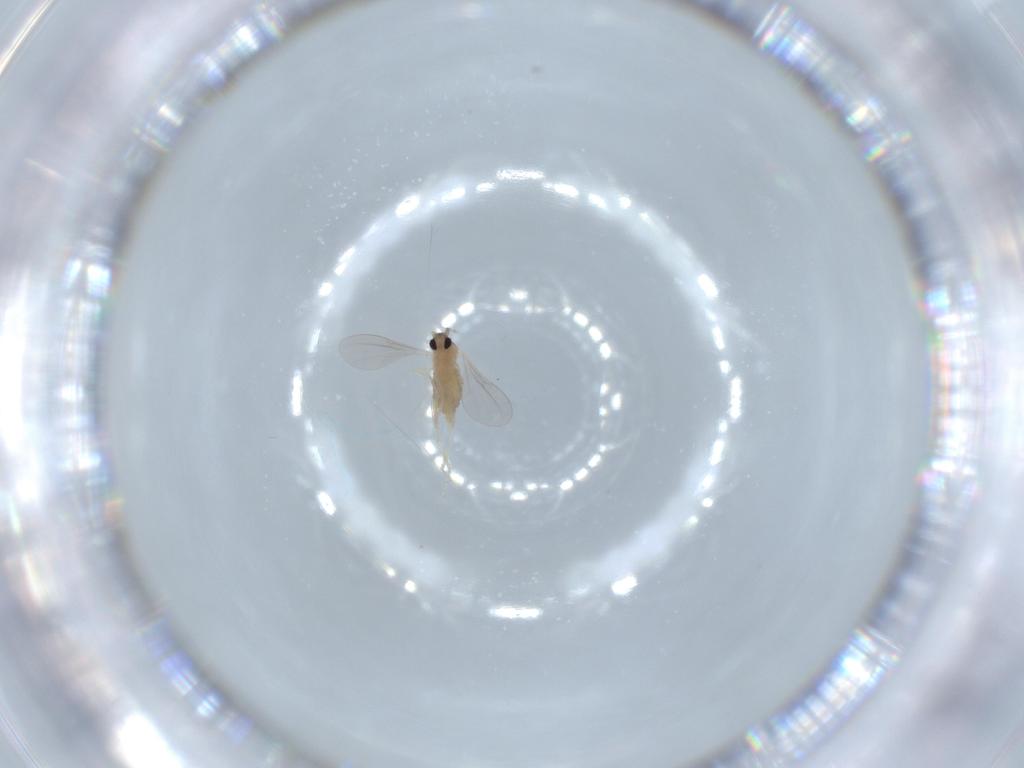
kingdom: Animalia
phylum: Arthropoda
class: Insecta
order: Diptera
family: Cecidomyiidae
